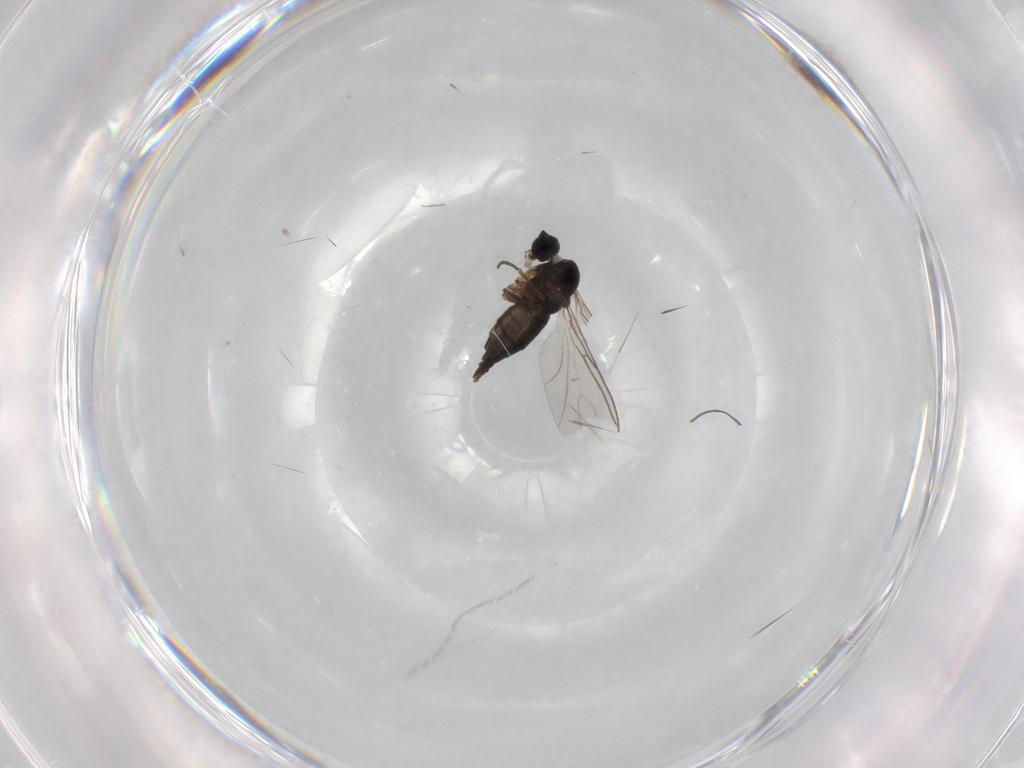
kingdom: Animalia
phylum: Arthropoda
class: Insecta
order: Diptera
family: Sciaridae
